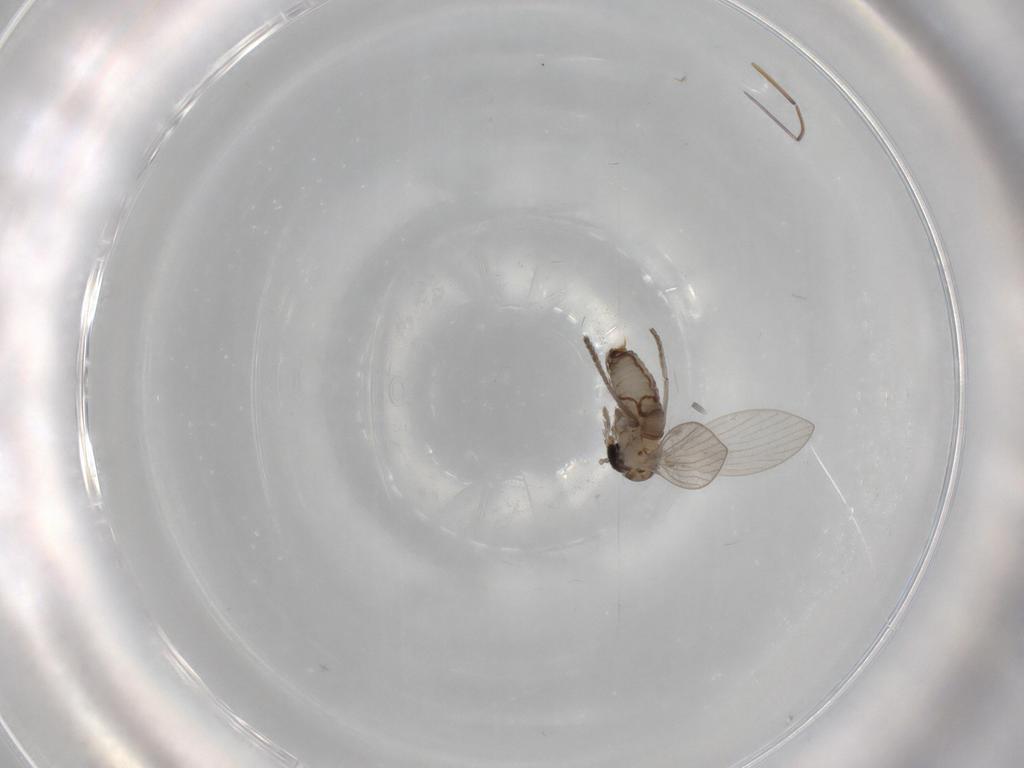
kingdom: Animalia
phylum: Arthropoda
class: Insecta
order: Diptera
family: Psychodidae
